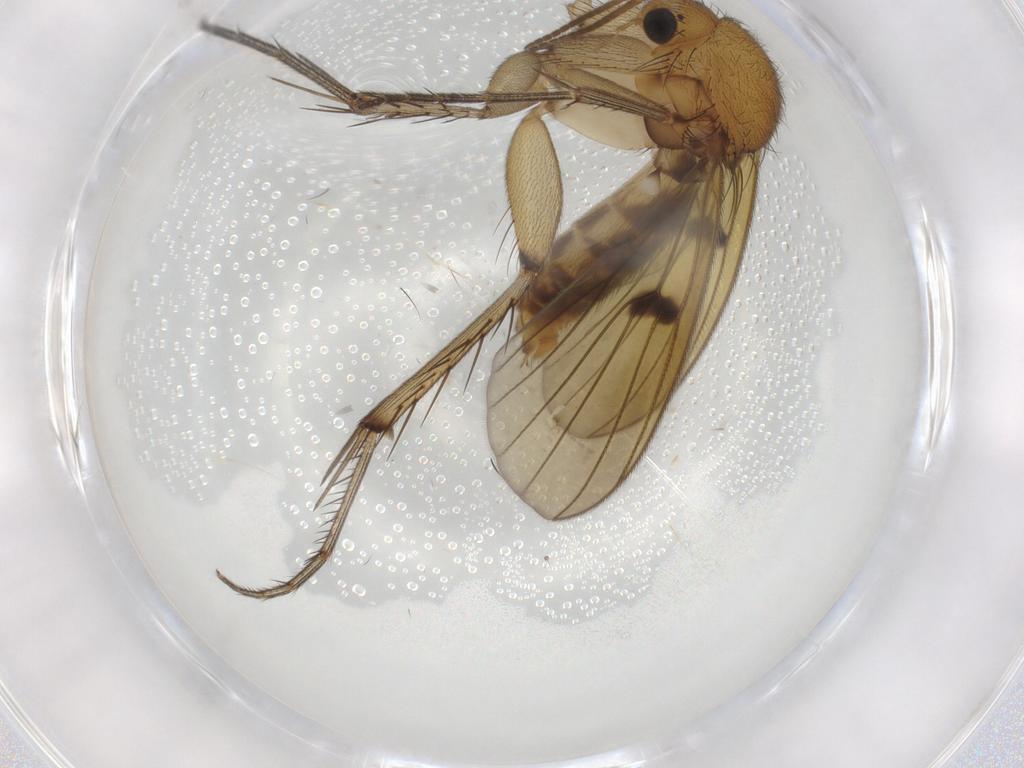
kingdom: Animalia
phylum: Arthropoda
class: Insecta
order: Diptera
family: Mycetophilidae
